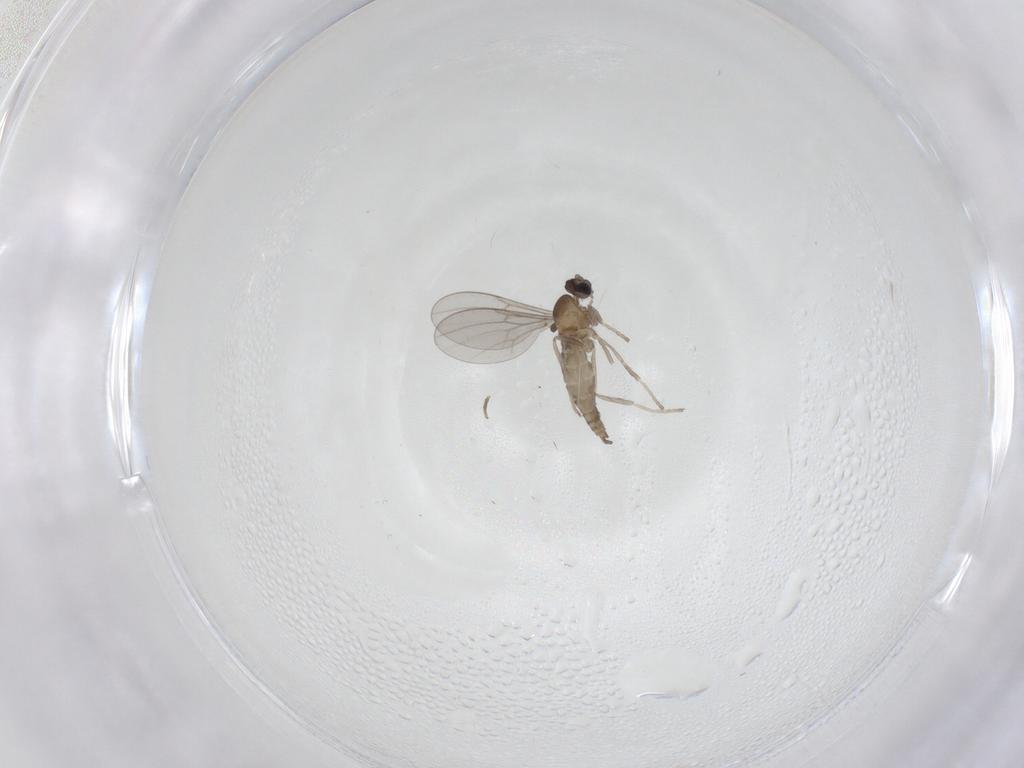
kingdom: Animalia
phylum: Arthropoda
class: Insecta
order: Diptera
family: Cecidomyiidae
